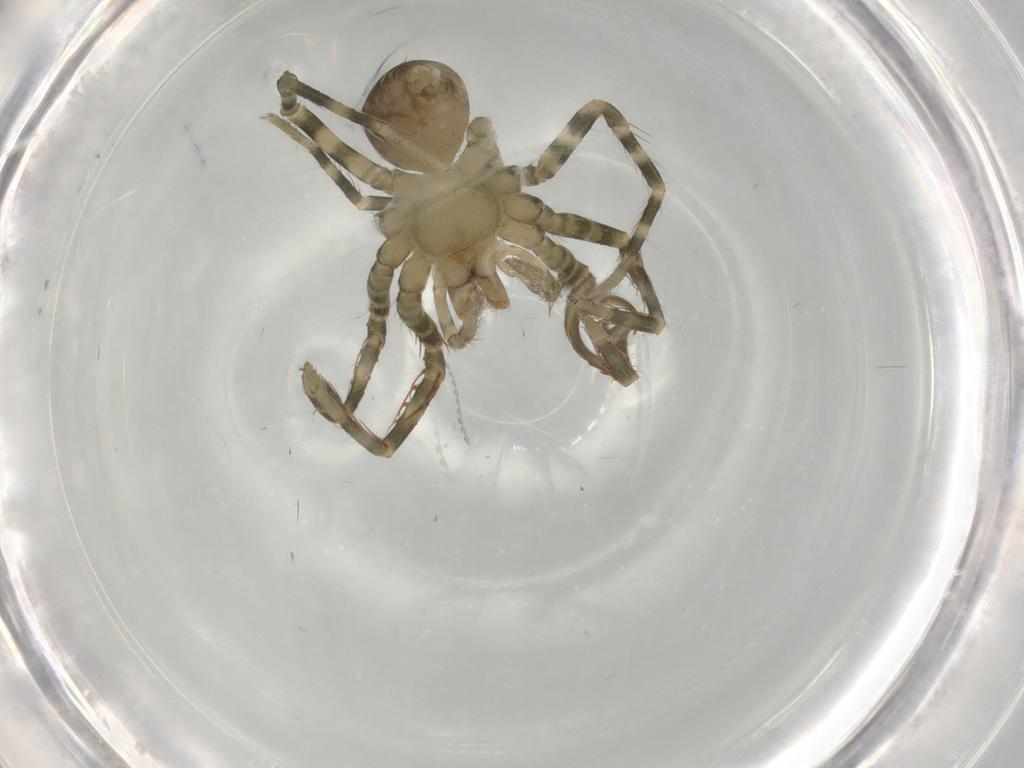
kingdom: Animalia
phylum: Arthropoda
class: Arachnida
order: Araneae
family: Ctenidae
